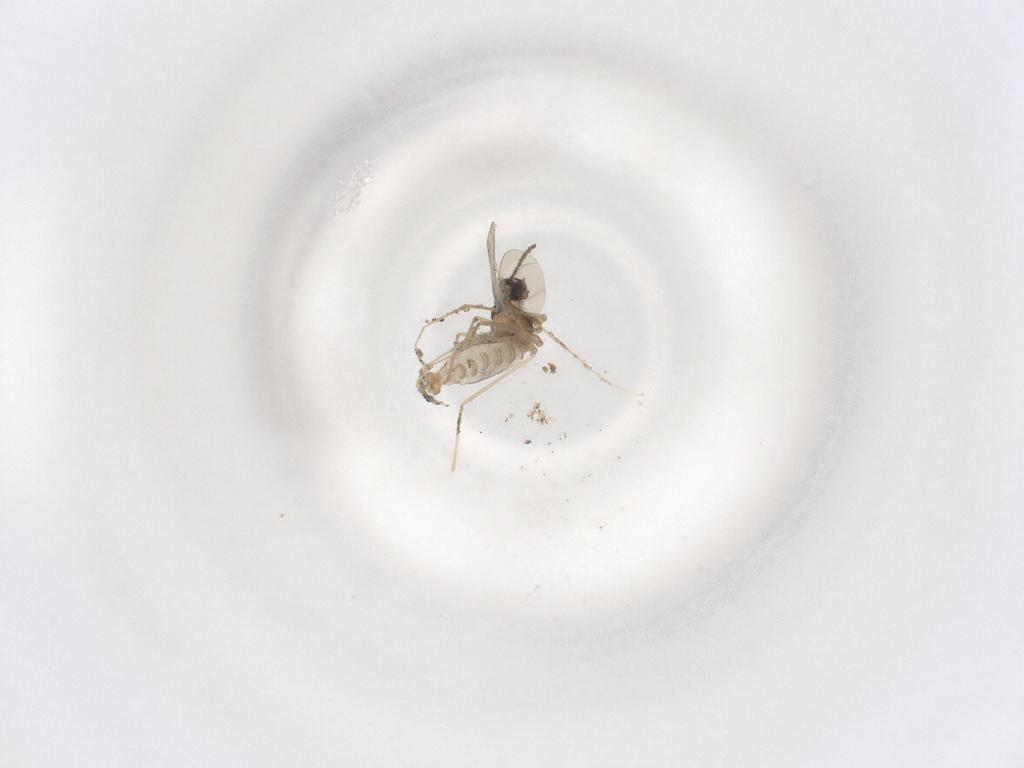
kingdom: Animalia
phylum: Arthropoda
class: Insecta
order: Diptera
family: Cecidomyiidae
